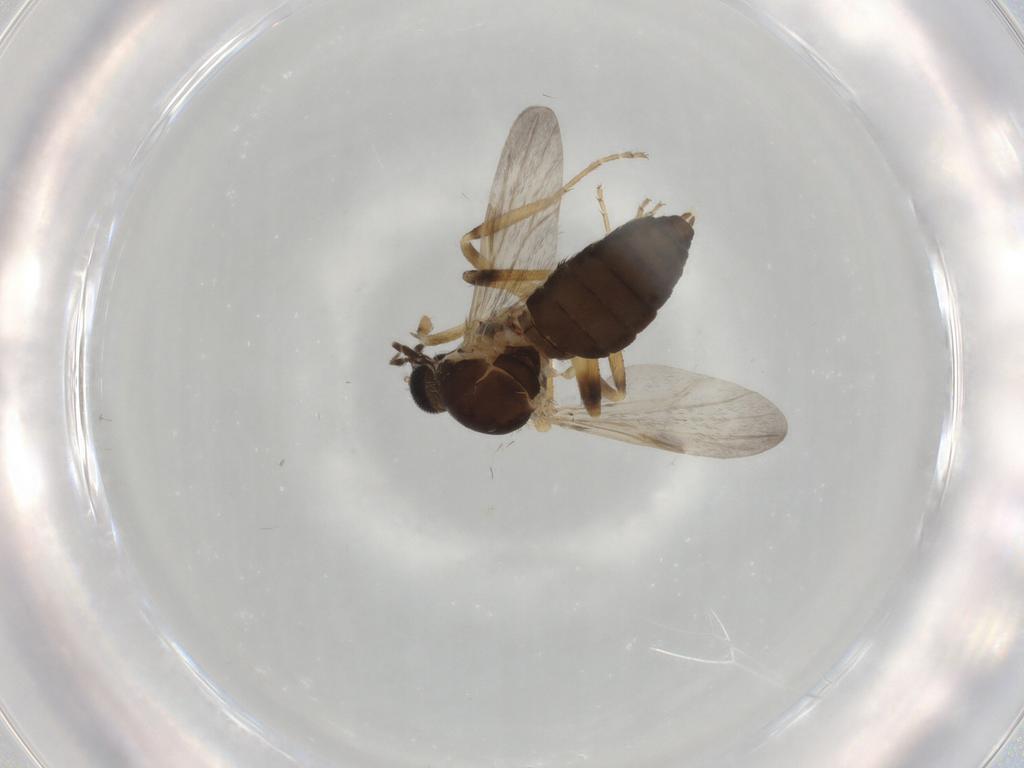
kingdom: Animalia
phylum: Arthropoda
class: Insecta
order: Diptera
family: Ceratopogonidae
